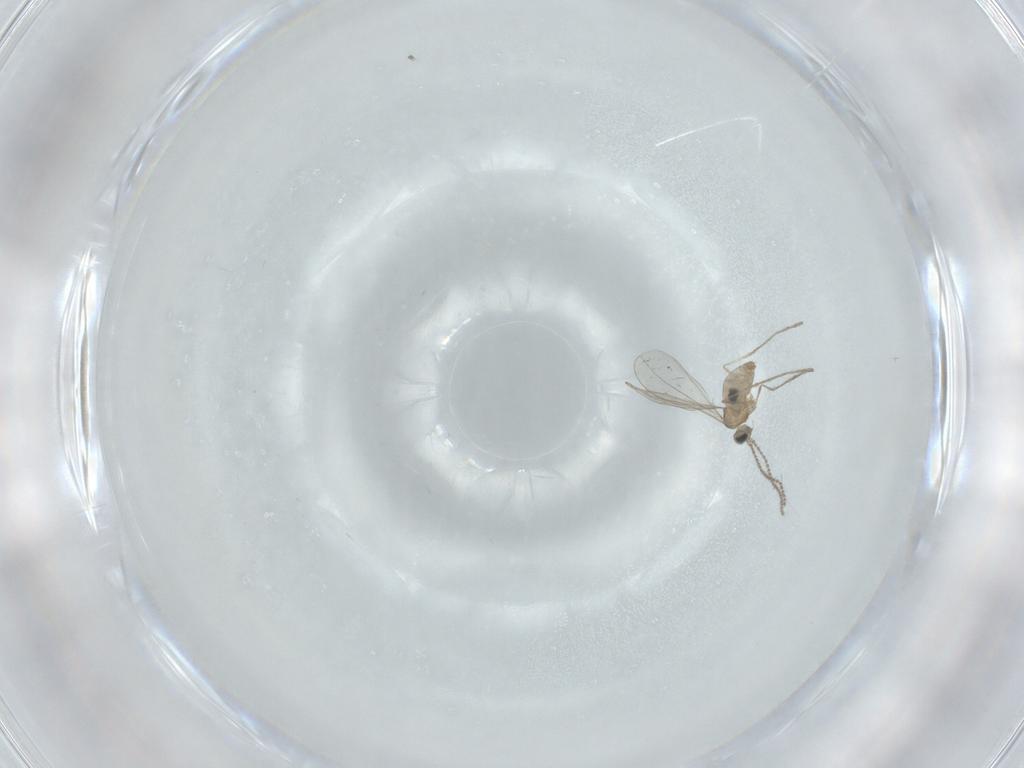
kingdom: Animalia
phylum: Arthropoda
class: Insecta
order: Diptera
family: Cecidomyiidae
